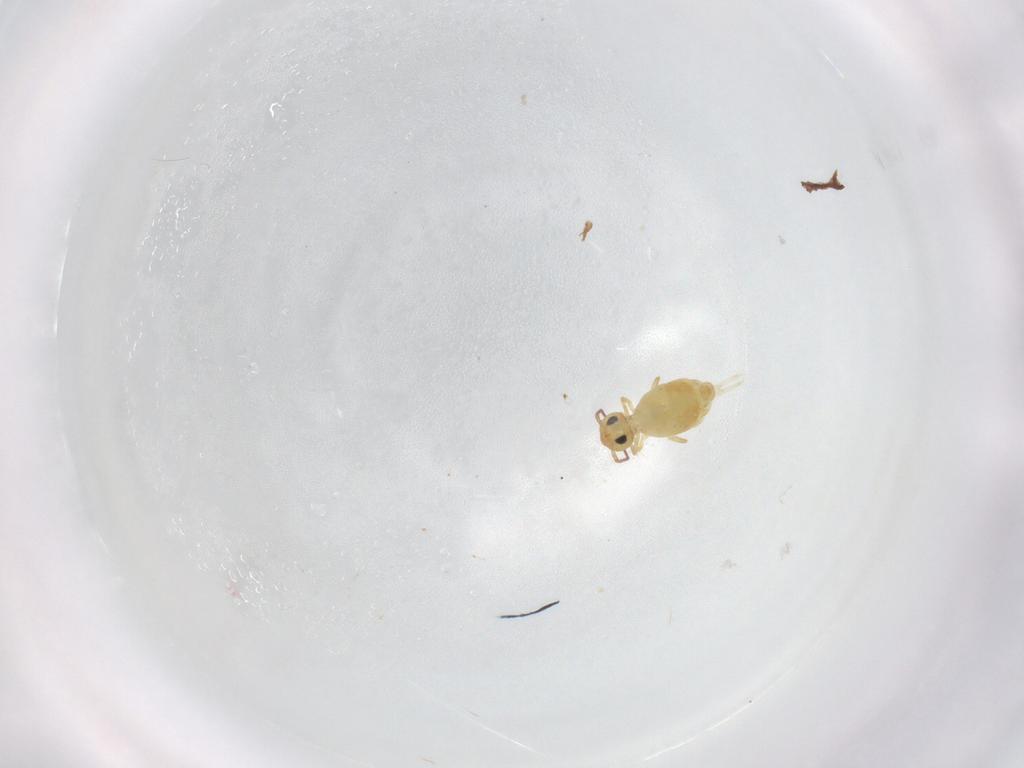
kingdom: Animalia
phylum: Arthropoda
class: Collembola
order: Symphypleona
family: Bourletiellidae
